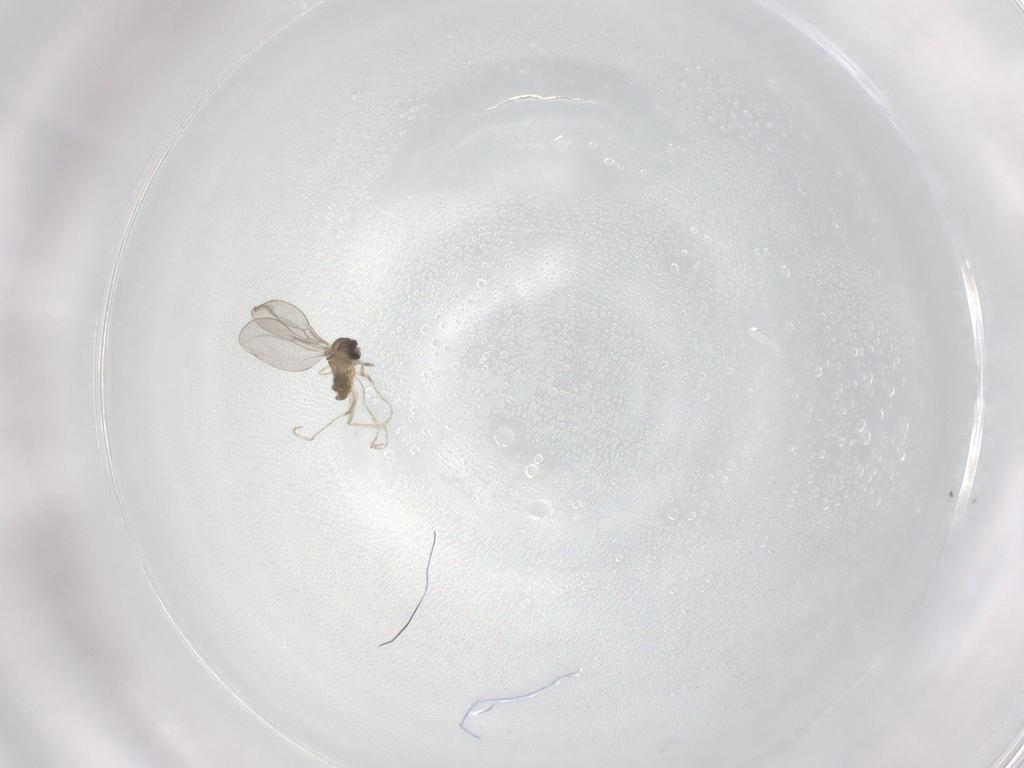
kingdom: Animalia
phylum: Arthropoda
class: Insecta
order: Diptera
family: Cecidomyiidae
